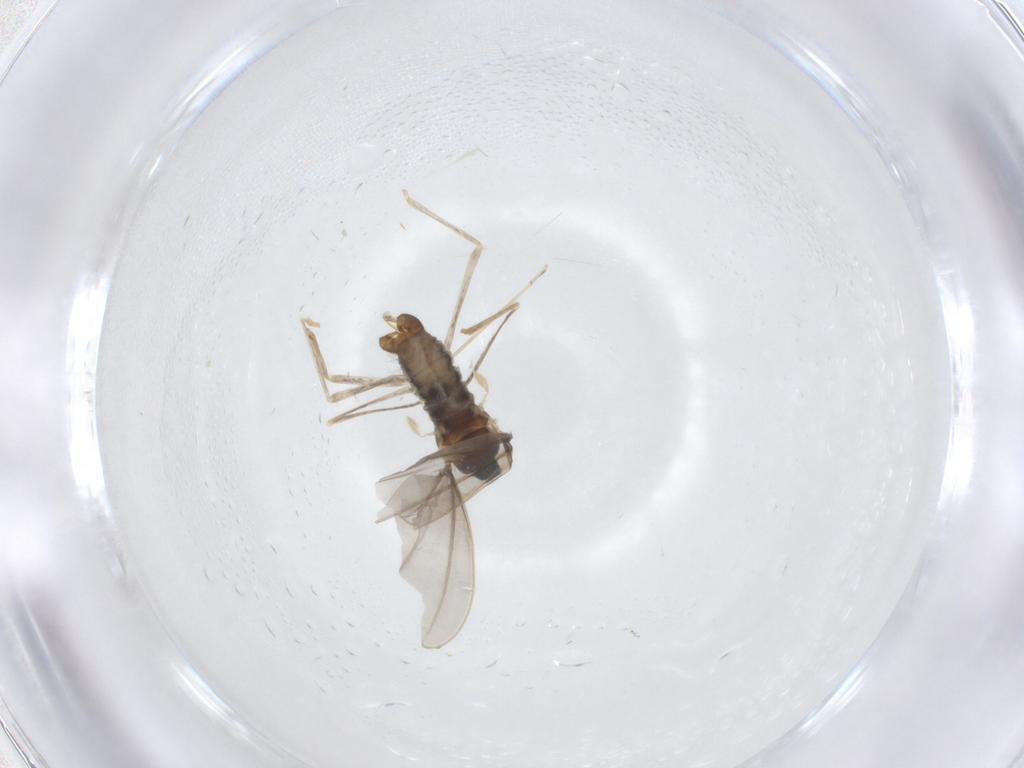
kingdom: Animalia
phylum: Arthropoda
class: Insecta
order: Diptera
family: Cecidomyiidae
